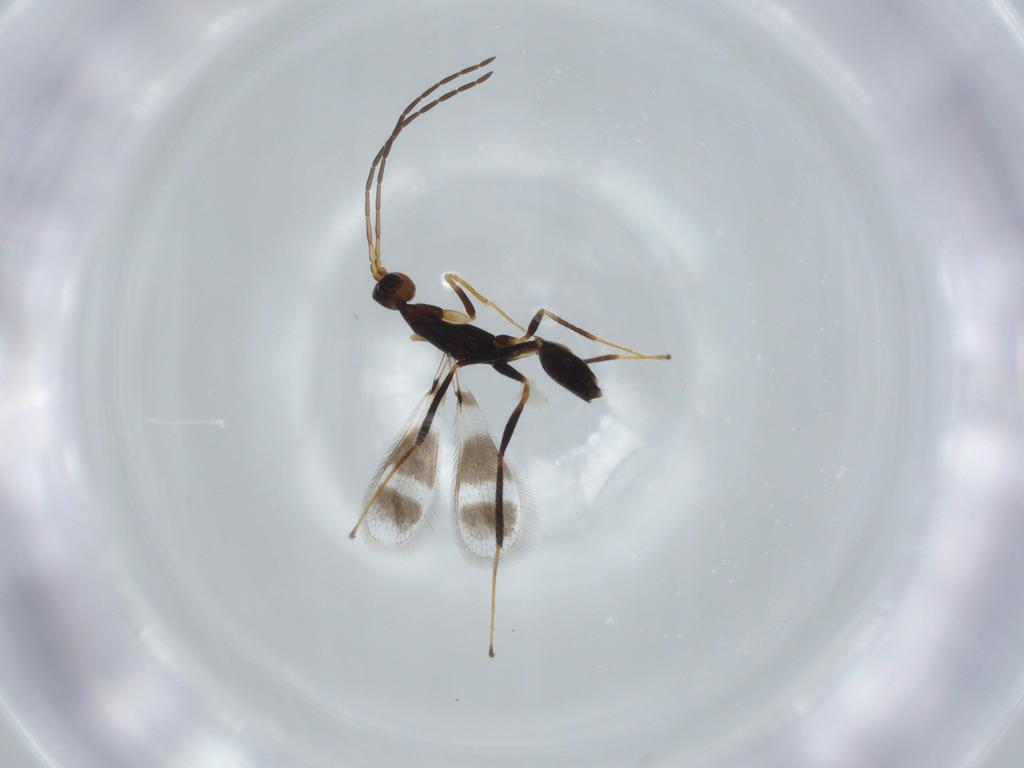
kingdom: Animalia
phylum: Arthropoda
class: Insecta
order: Hymenoptera
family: Mymaridae
